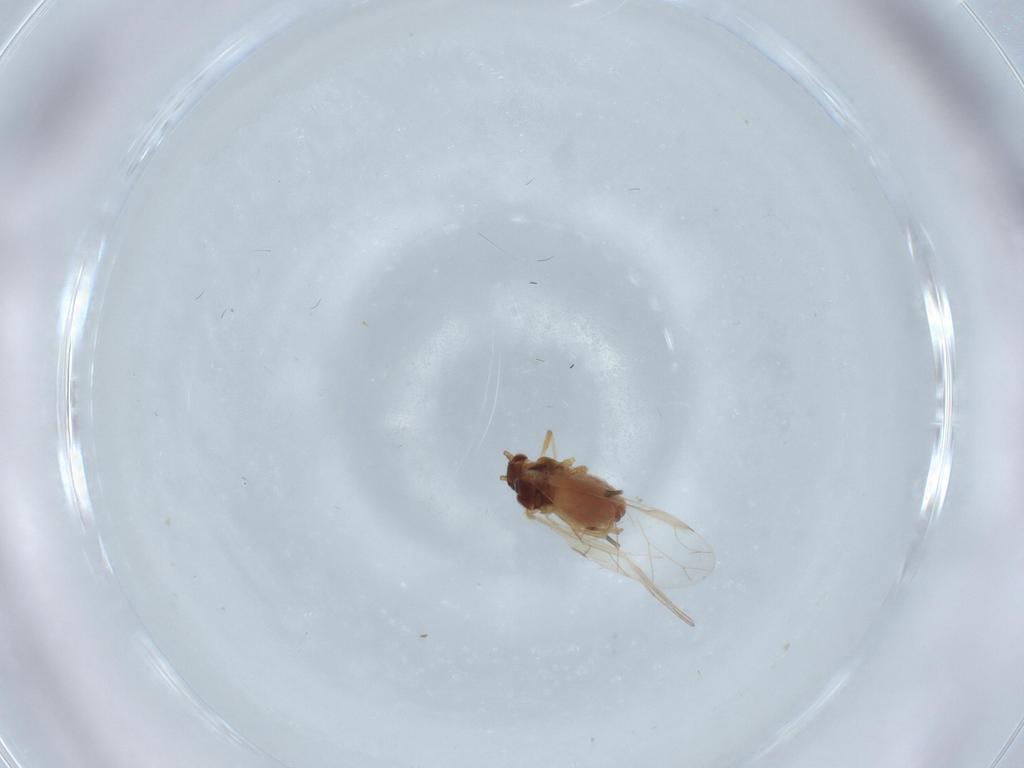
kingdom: Animalia
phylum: Arthropoda
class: Insecta
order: Hemiptera
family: Aphididae
